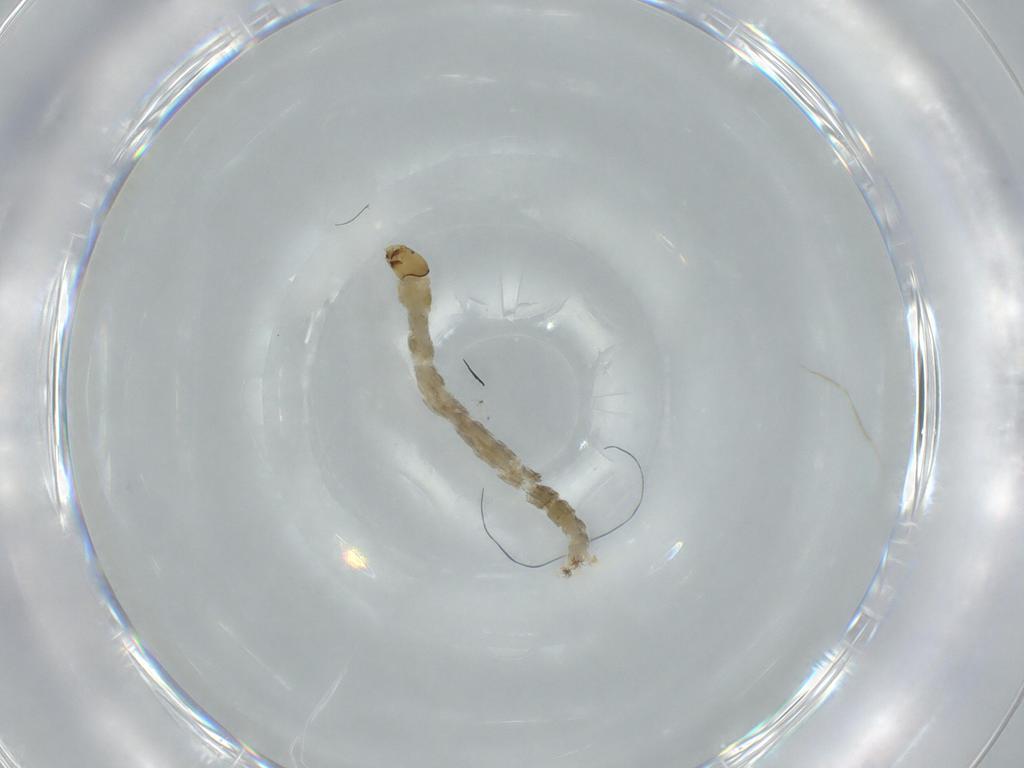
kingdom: Animalia
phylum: Arthropoda
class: Insecta
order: Diptera
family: Chironomidae
